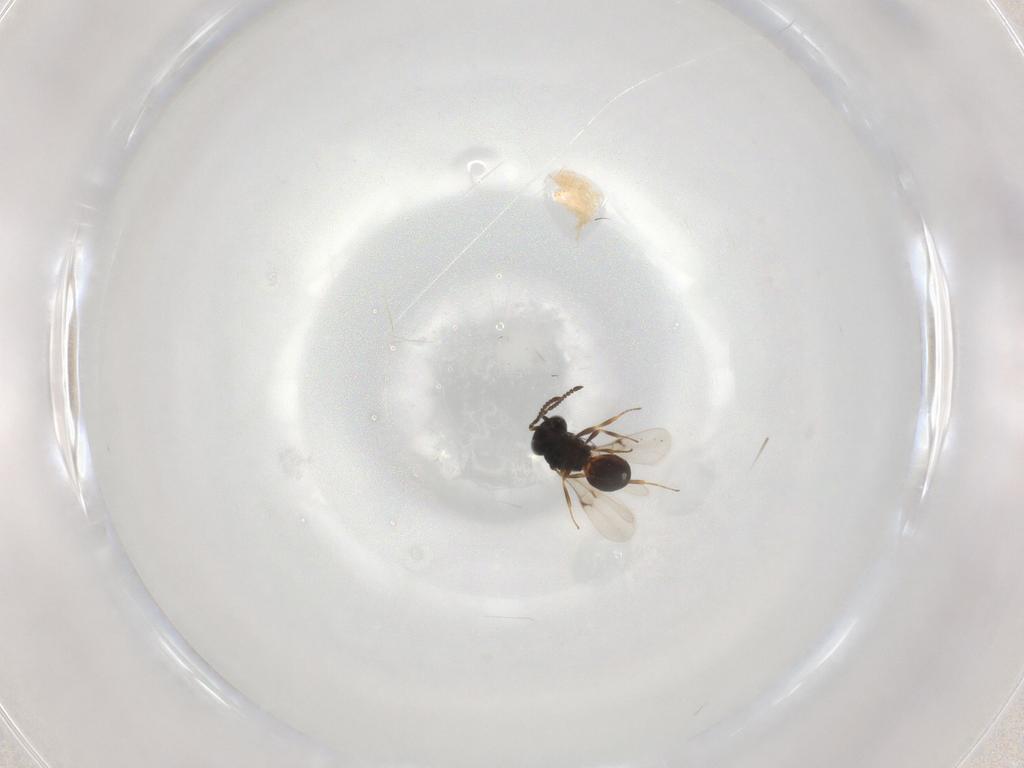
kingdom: Animalia
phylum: Arthropoda
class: Insecta
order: Hymenoptera
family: Scelionidae
